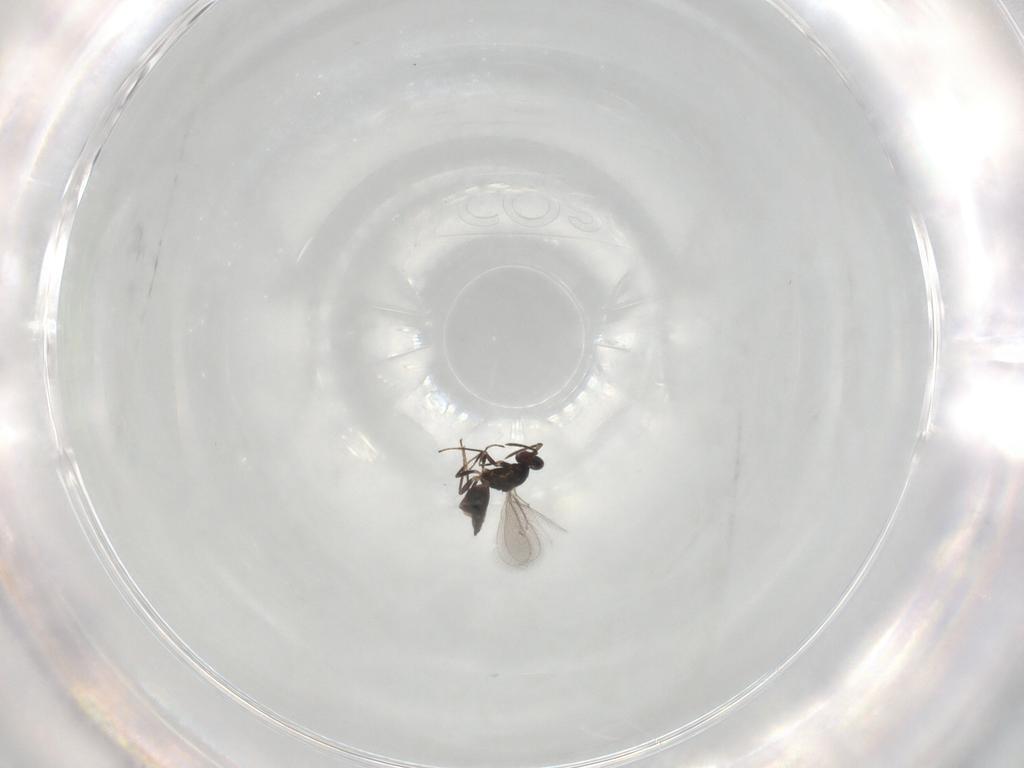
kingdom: Animalia
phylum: Arthropoda
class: Insecta
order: Hymenoptera
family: Eulophidae
